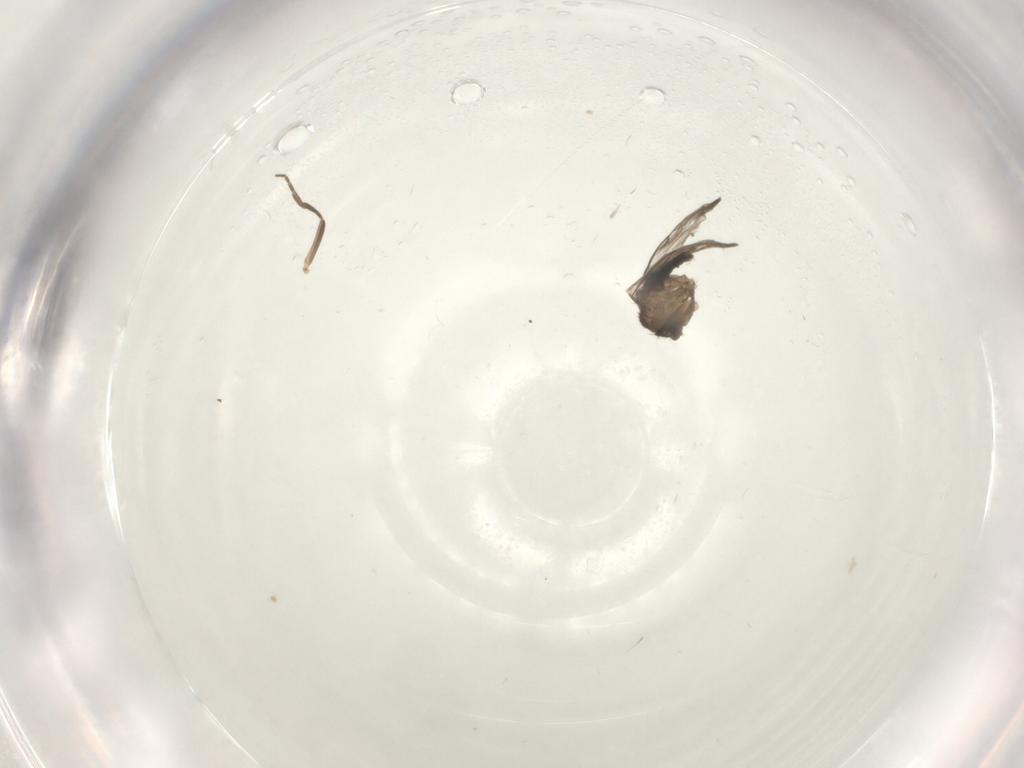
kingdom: Animalia
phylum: Arthropoda
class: Insecta
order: Diptera
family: Phoridae
